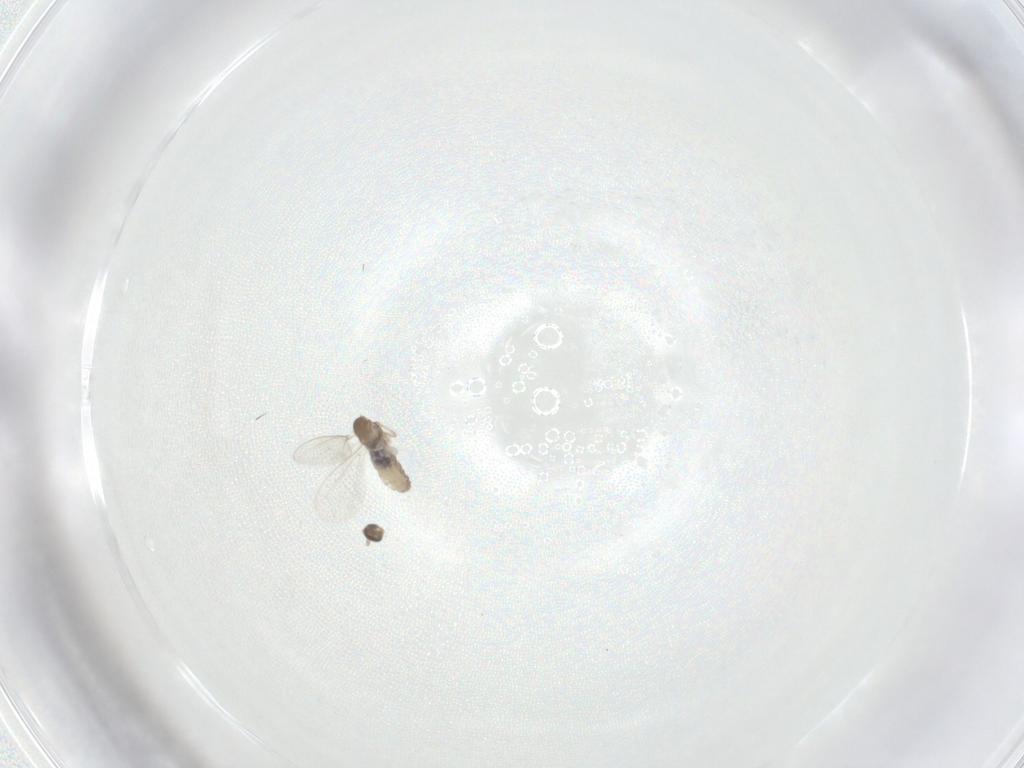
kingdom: Animalia
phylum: Arthropoda
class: Insecta
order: Diptera
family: Cecidomyiidae
